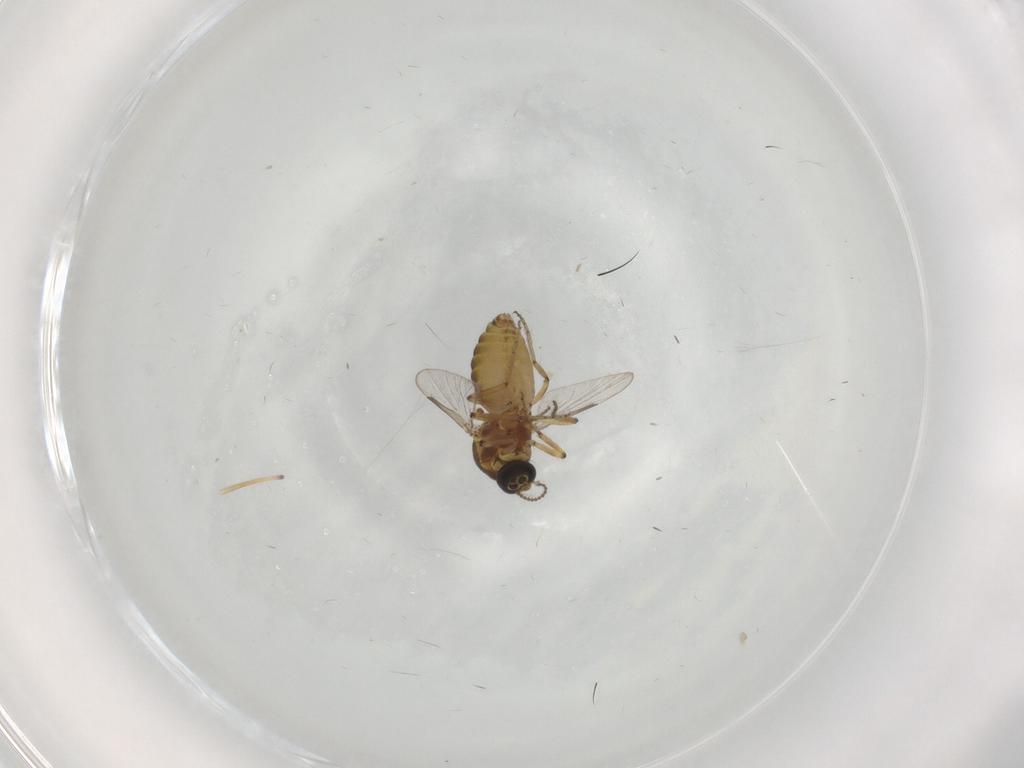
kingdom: Animalia
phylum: Arthropoda
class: Insecta
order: Diptera
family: Ceratopogonidae
